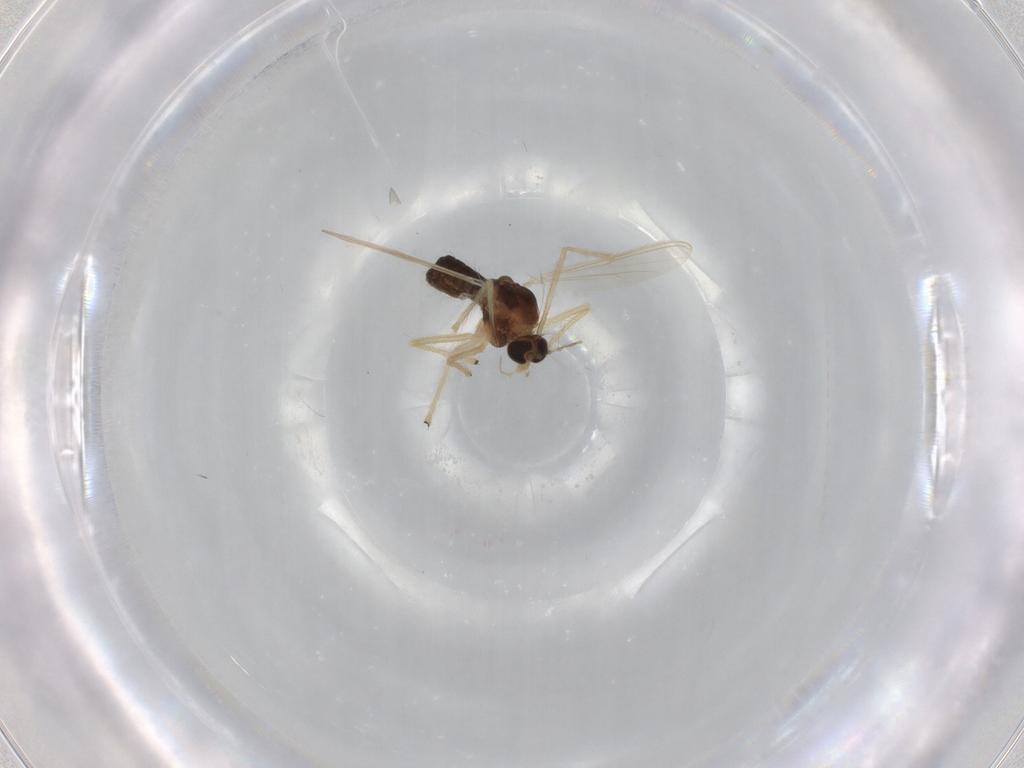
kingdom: Animalia
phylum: Arthropoda
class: Insecta
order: Diptera
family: Chironomidae
